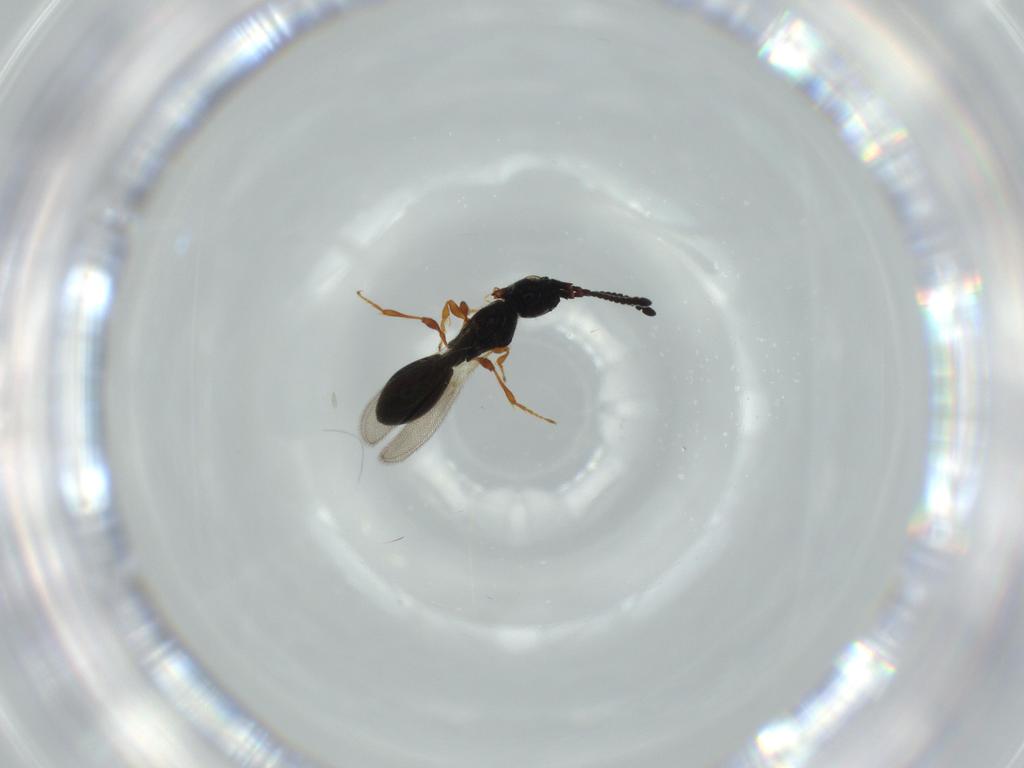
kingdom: Animalia
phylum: Arthropoda
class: Insecta
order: Hymenoptera
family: Diapriidae
